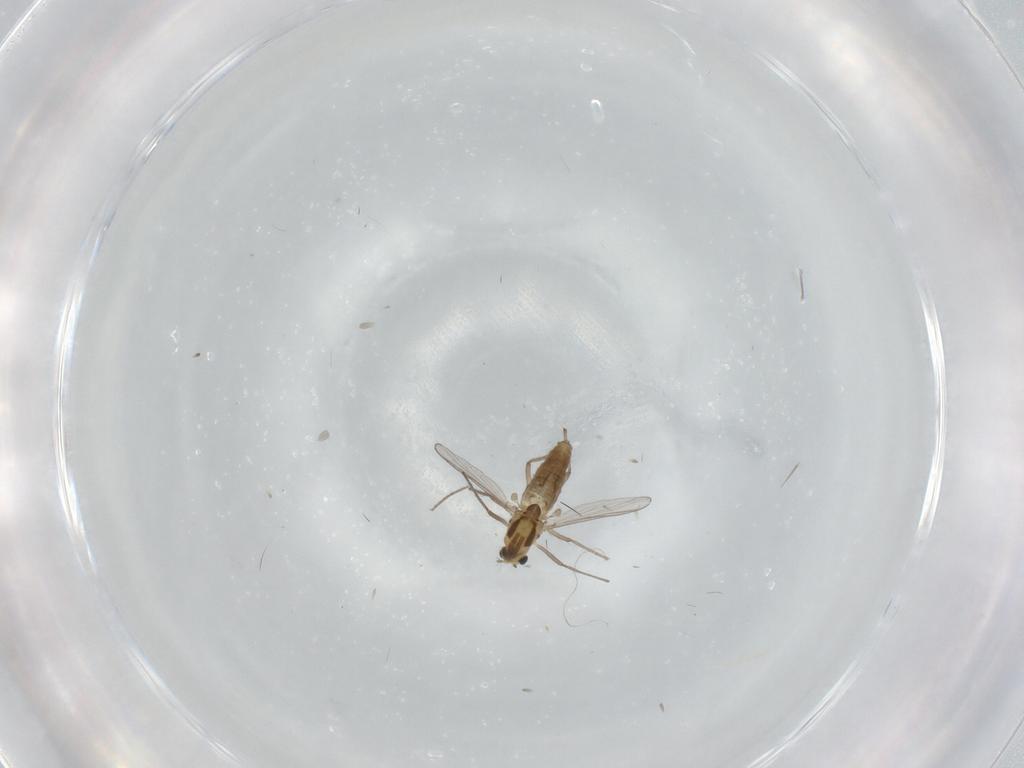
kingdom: Animalia
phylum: Arthropoda
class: Insecta
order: Diptera
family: Chironomidae
